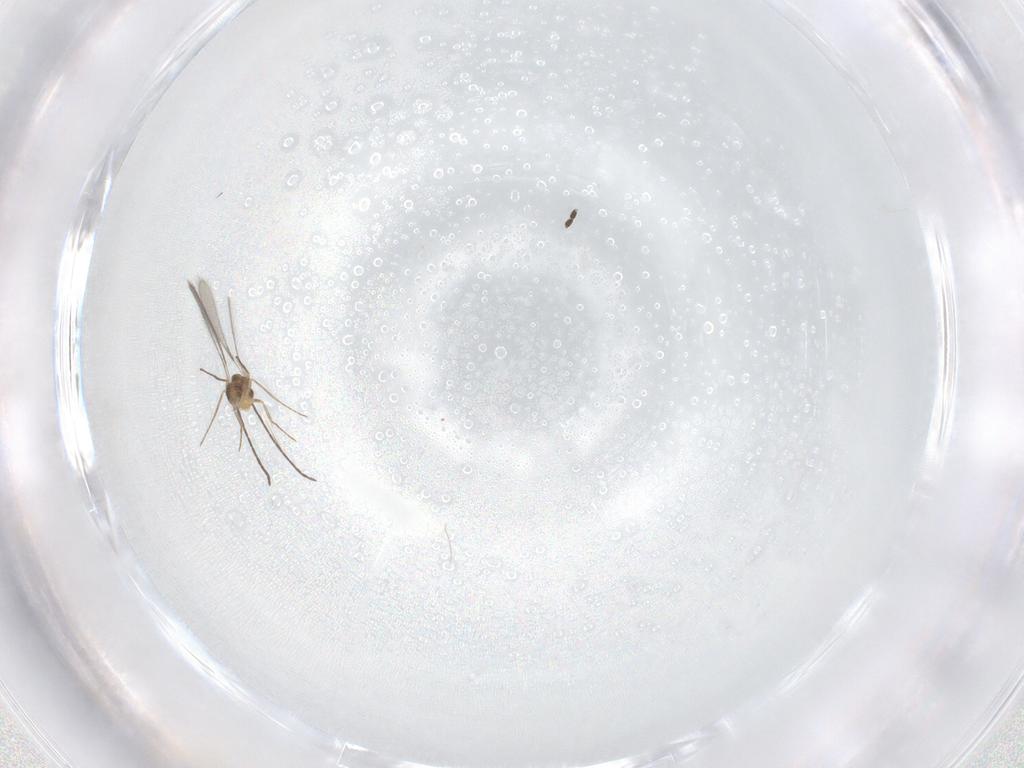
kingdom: Animalia
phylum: Arthropoda
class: Insecta
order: Hymenoptera
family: Mymaridae
